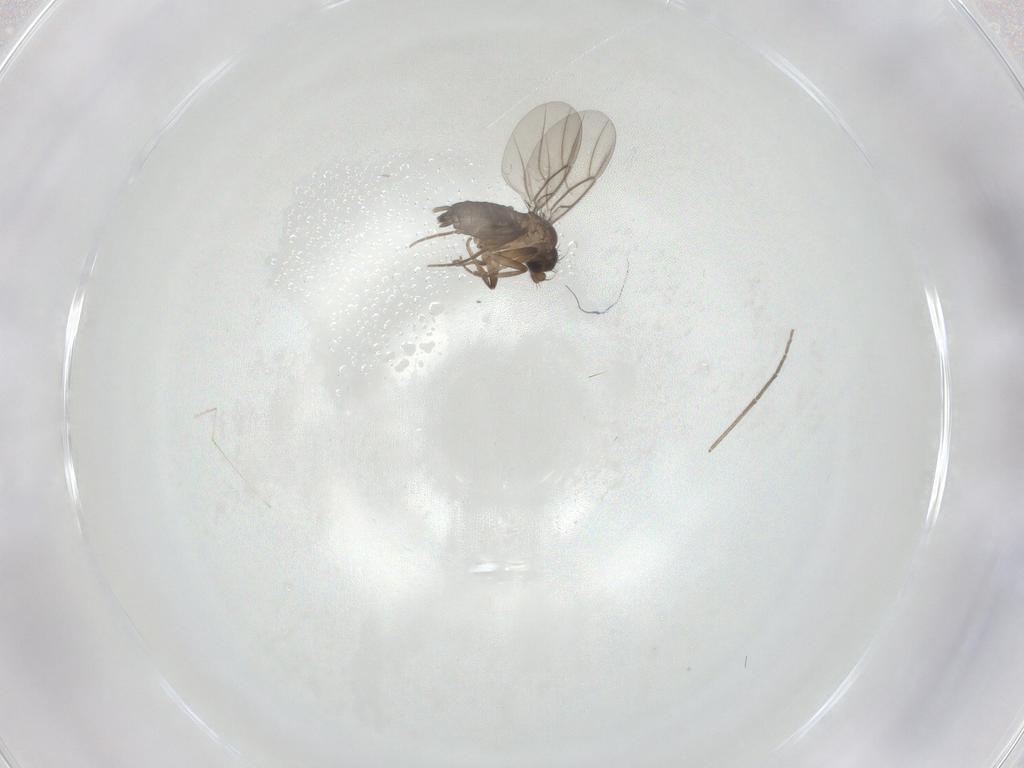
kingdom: Animalia
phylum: Arthropoda
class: Insecta
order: Diptera
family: Phoridae
